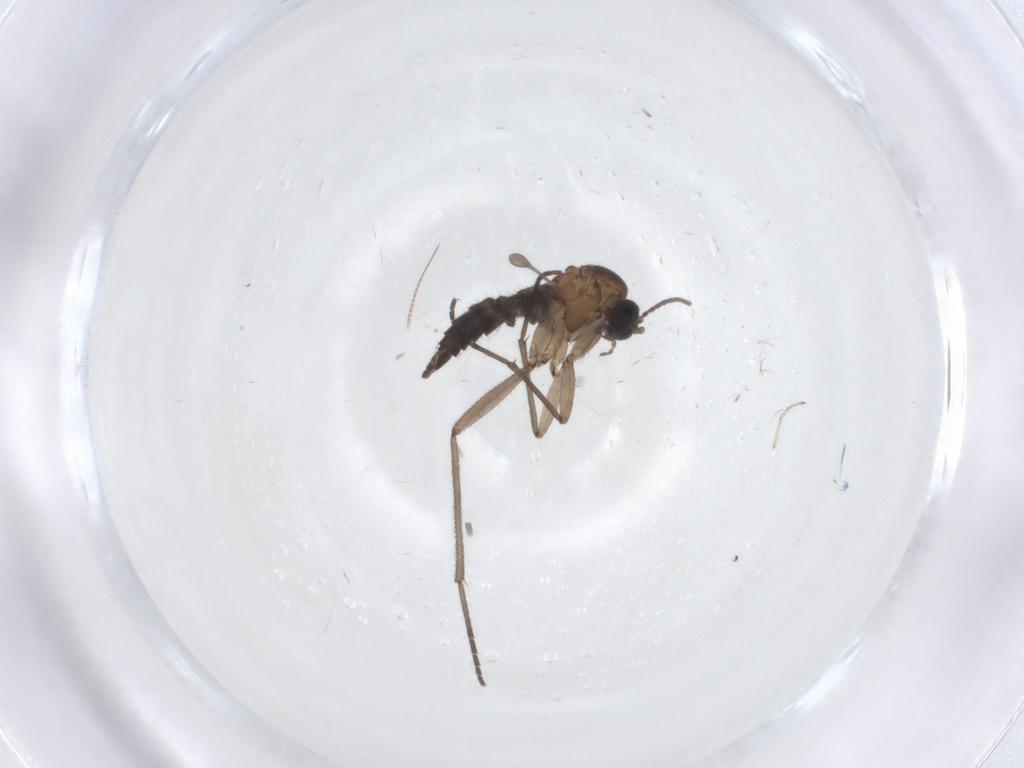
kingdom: Animalia
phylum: Arthropoda
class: Insecta
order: Diptera
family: Sciaridae
